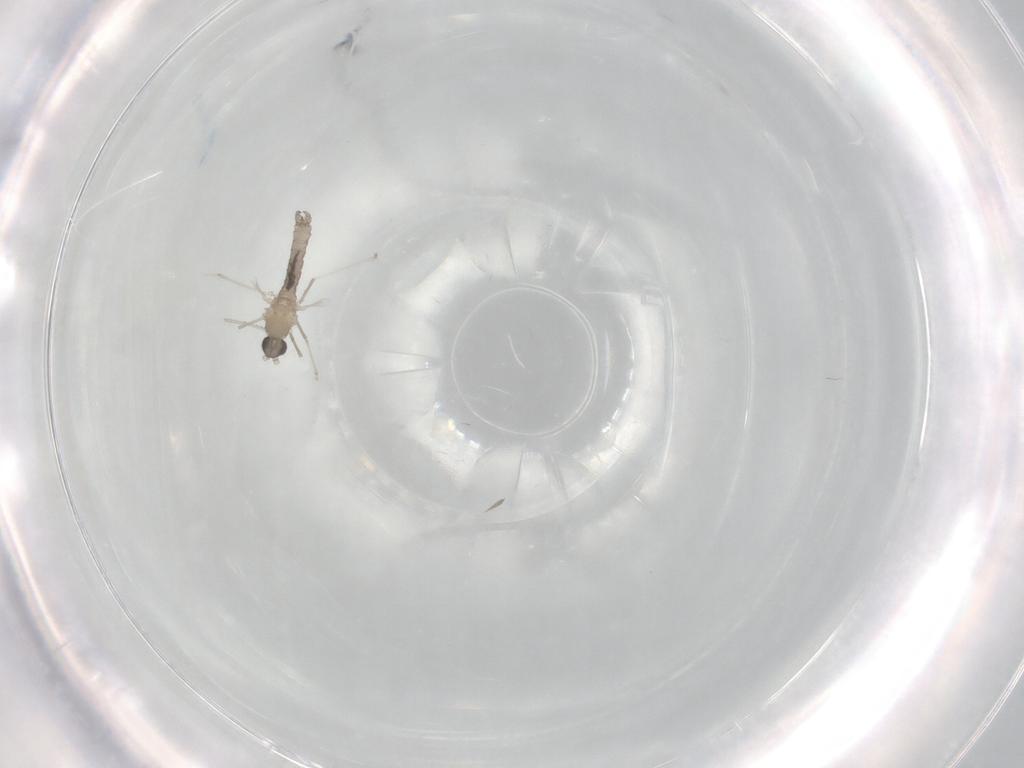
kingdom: Animalia
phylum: Arthropoda
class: Insecta
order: Diptera
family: Cecidomyiidae
